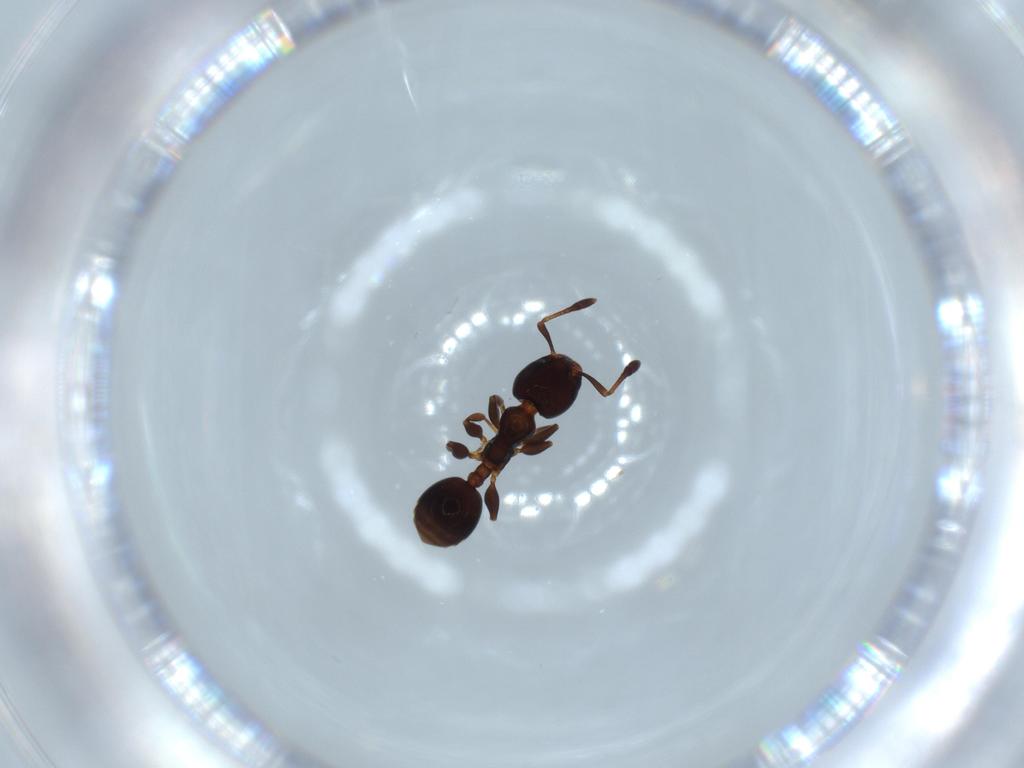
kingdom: Animalia
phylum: Arthropoda
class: Insecta
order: Hymenoptera
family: Formicidae
